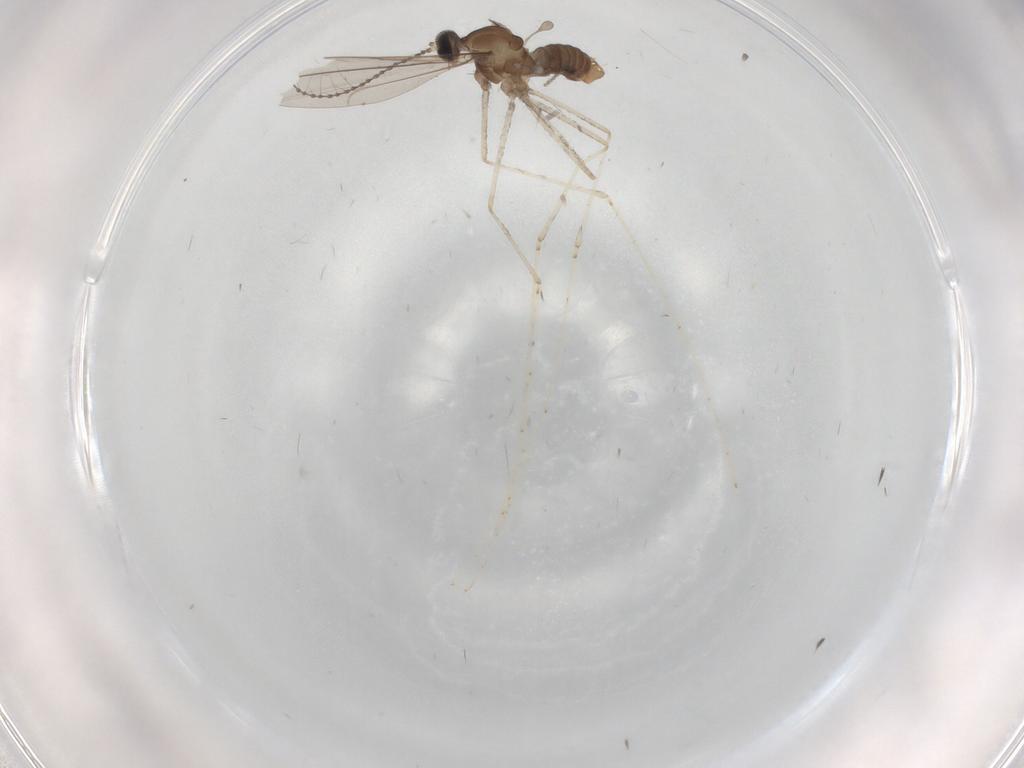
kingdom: Animalia
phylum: Arthropoda
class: Insecta
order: Diptera
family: Cecidomyiidae
